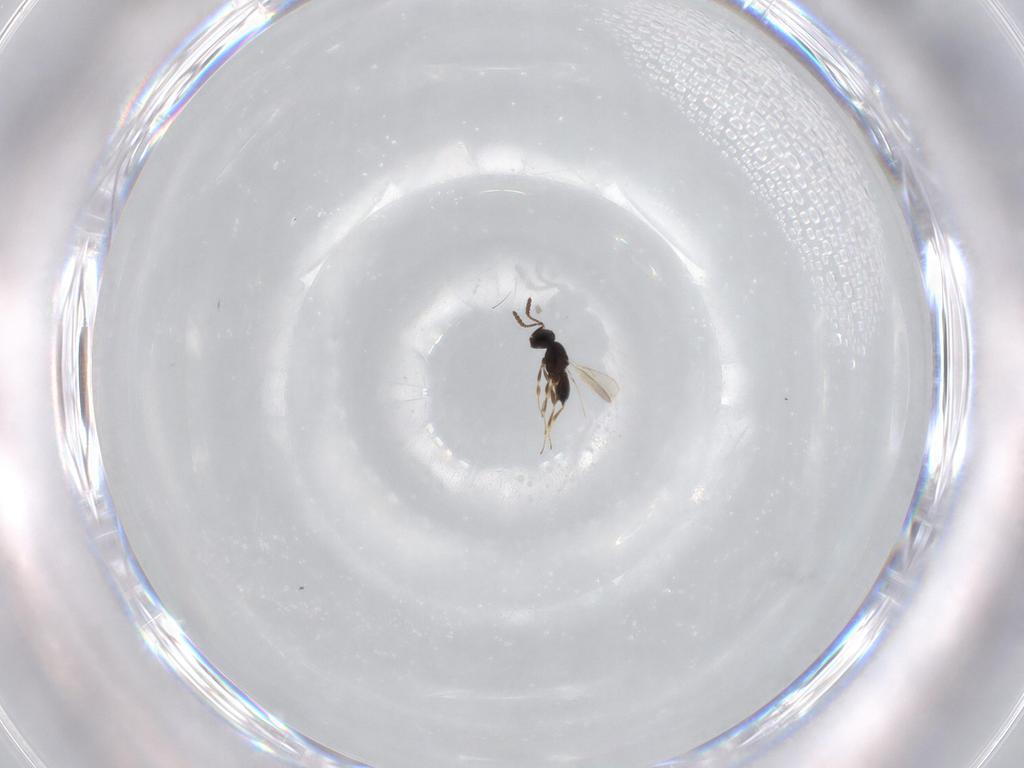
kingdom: Animalia
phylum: Arthropoda
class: Insecta
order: Hymenoptera
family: Scelionidae
